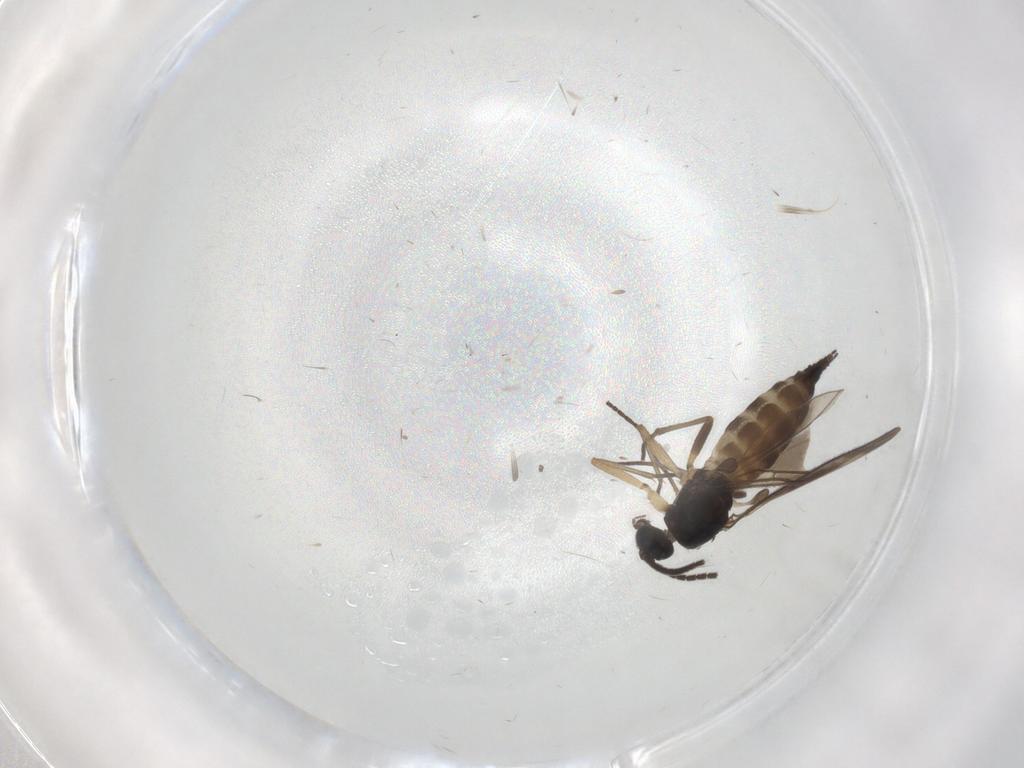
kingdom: Animalia
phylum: Arthropoda
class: Insecta
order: Diptera
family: Sciaridae
